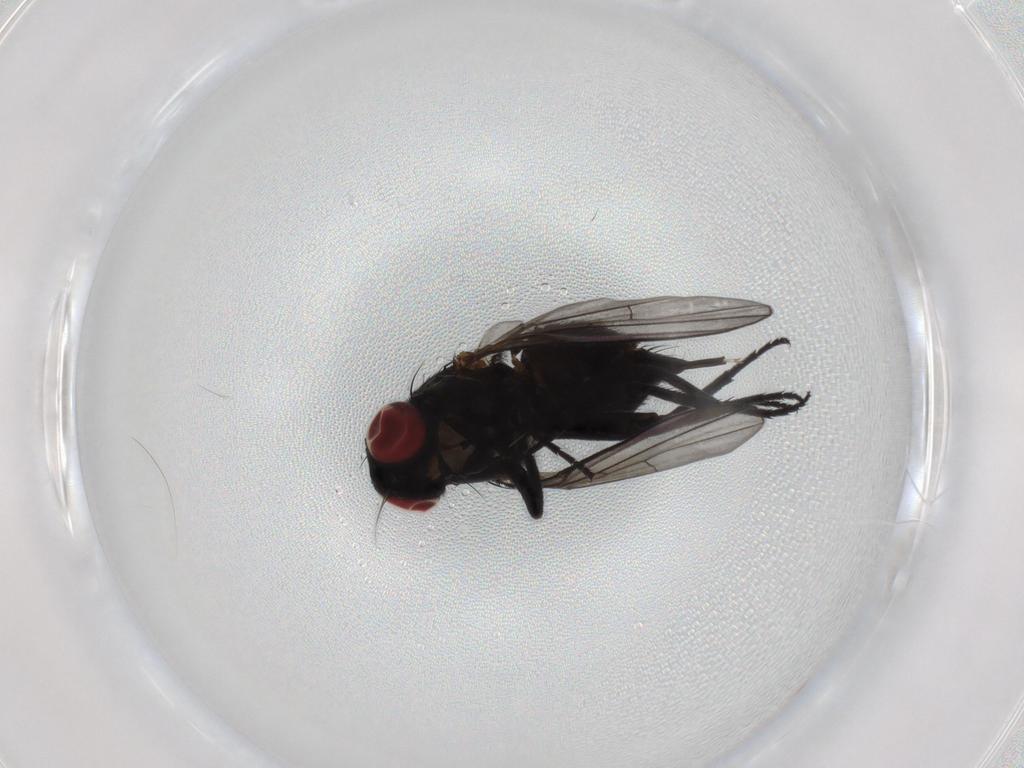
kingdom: Animalia
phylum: Arthropoda
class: Insecta
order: Diptera
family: Agromyzidae
